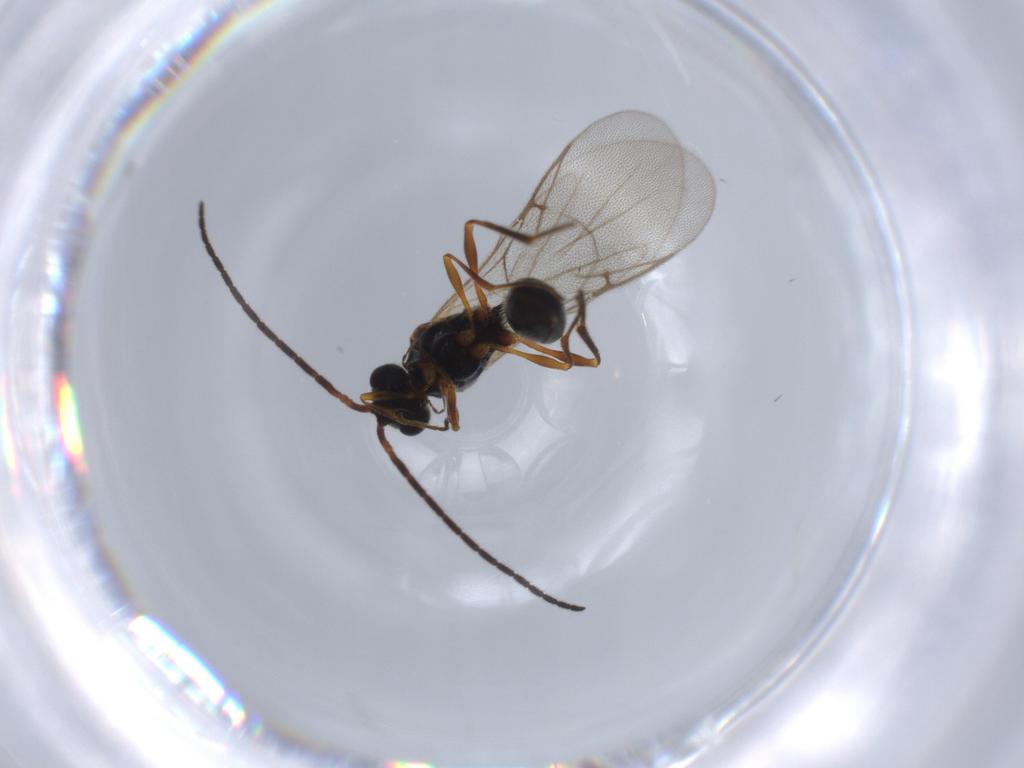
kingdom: Animalia
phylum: Arthropoda
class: Insecta
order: Hymenoptera
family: Diapriidae
